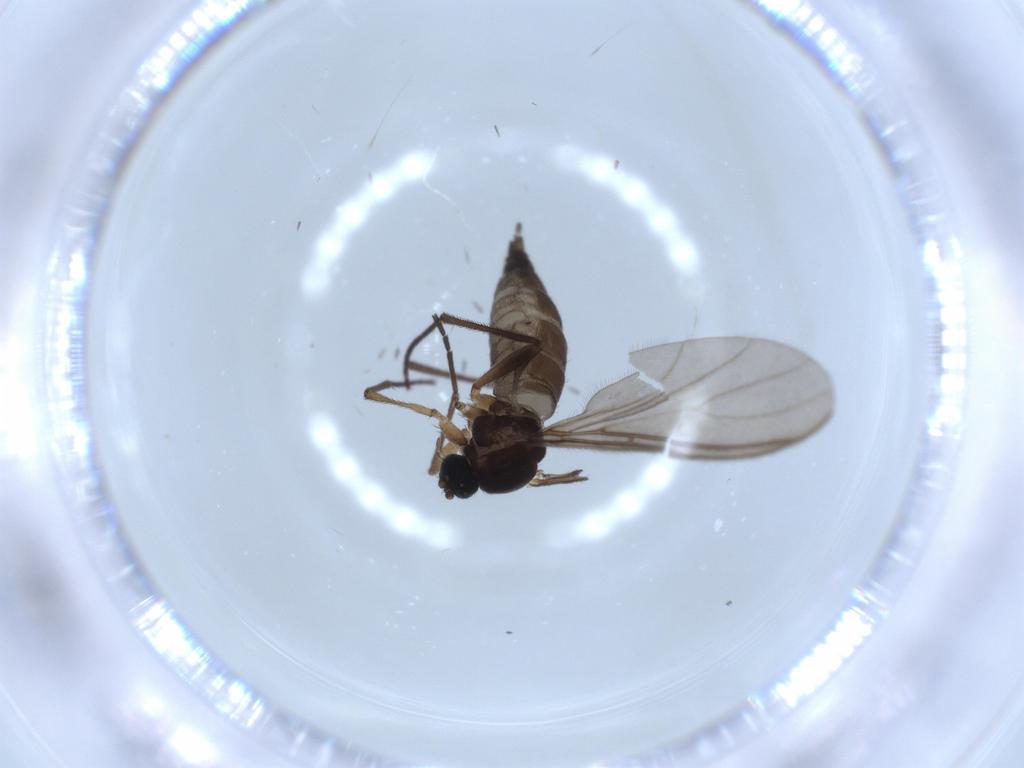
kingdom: Animalia
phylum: Arthropoda
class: Insecta
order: Diptera
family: Sciaridae
